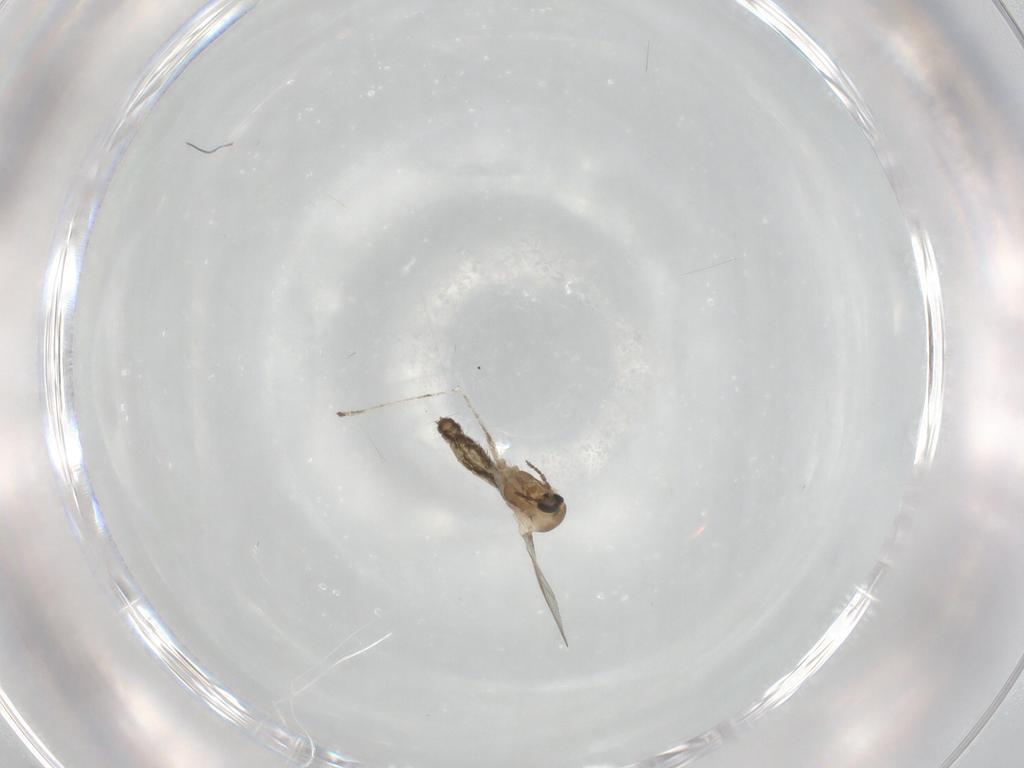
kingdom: Animalia
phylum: Arthropoda
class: Insecta
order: Diptera
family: Cecidomyiidae
